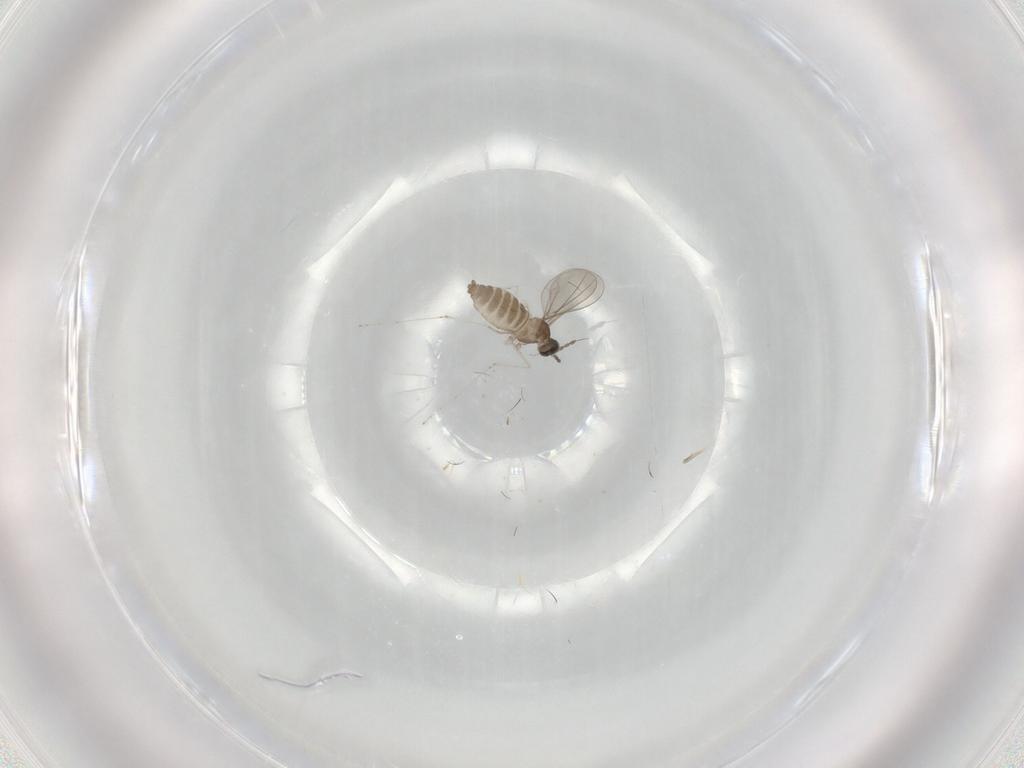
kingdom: Animalia
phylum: Arthropoda
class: Insecta
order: Diptera
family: Cecidomyiidae
